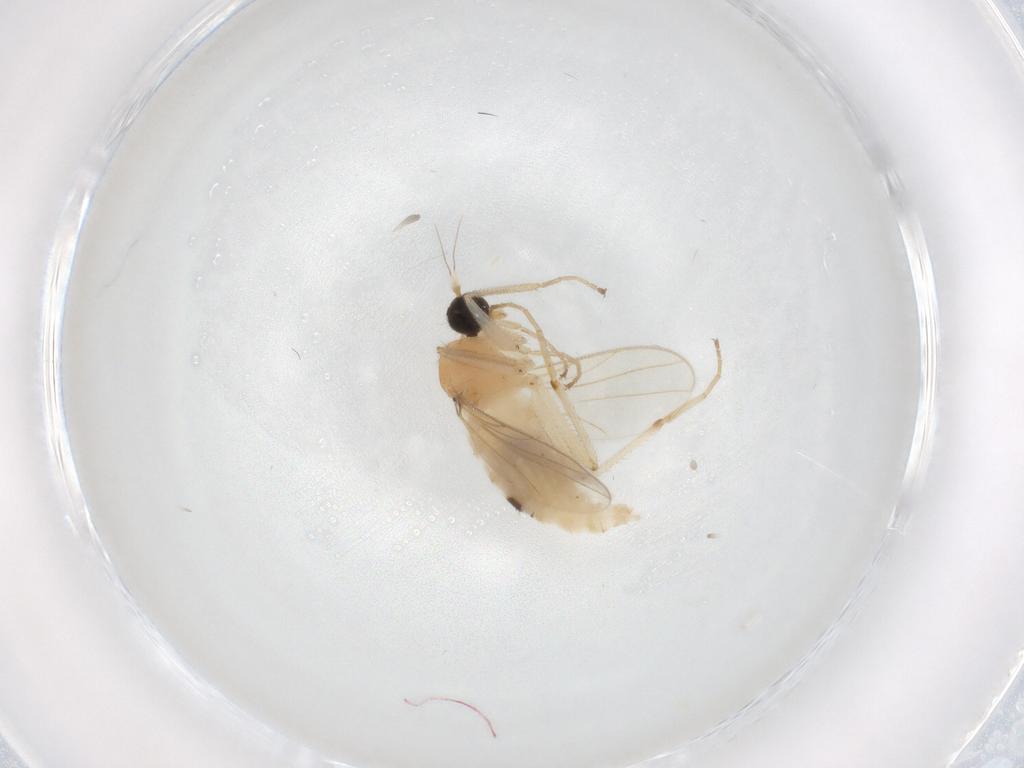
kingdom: Animalia
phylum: Arthropoda
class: Insecta
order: Diptera
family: Hybotidae
